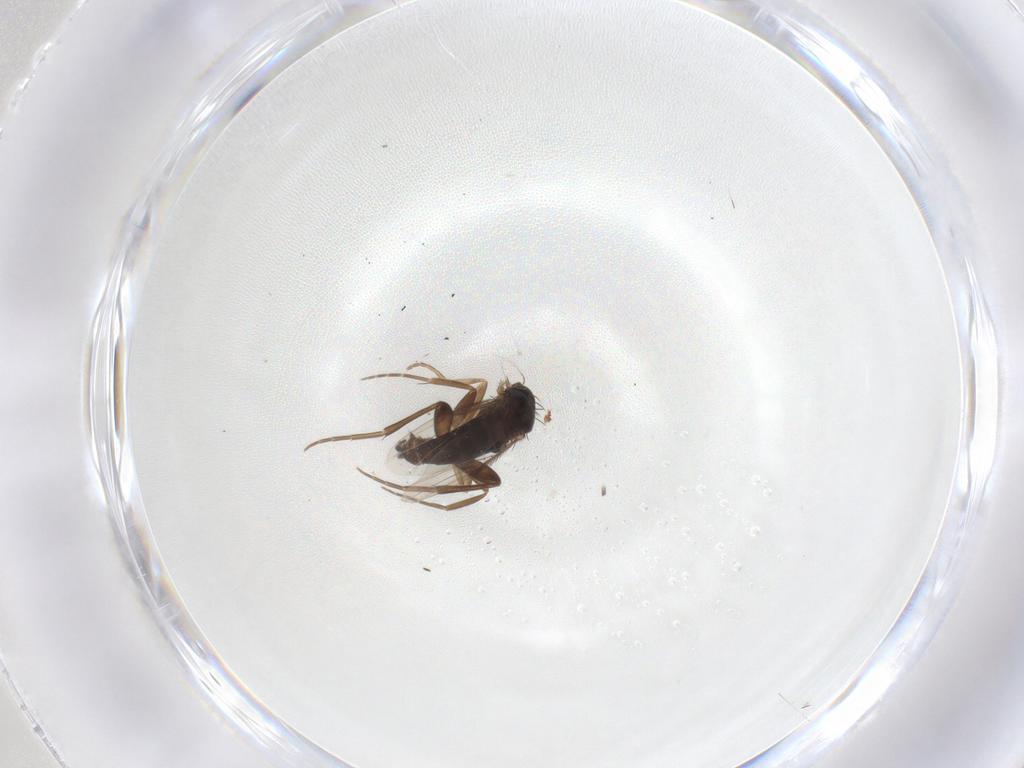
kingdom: Animalia
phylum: Arthropoda
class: Insecta
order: Diptera
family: Phoridae
